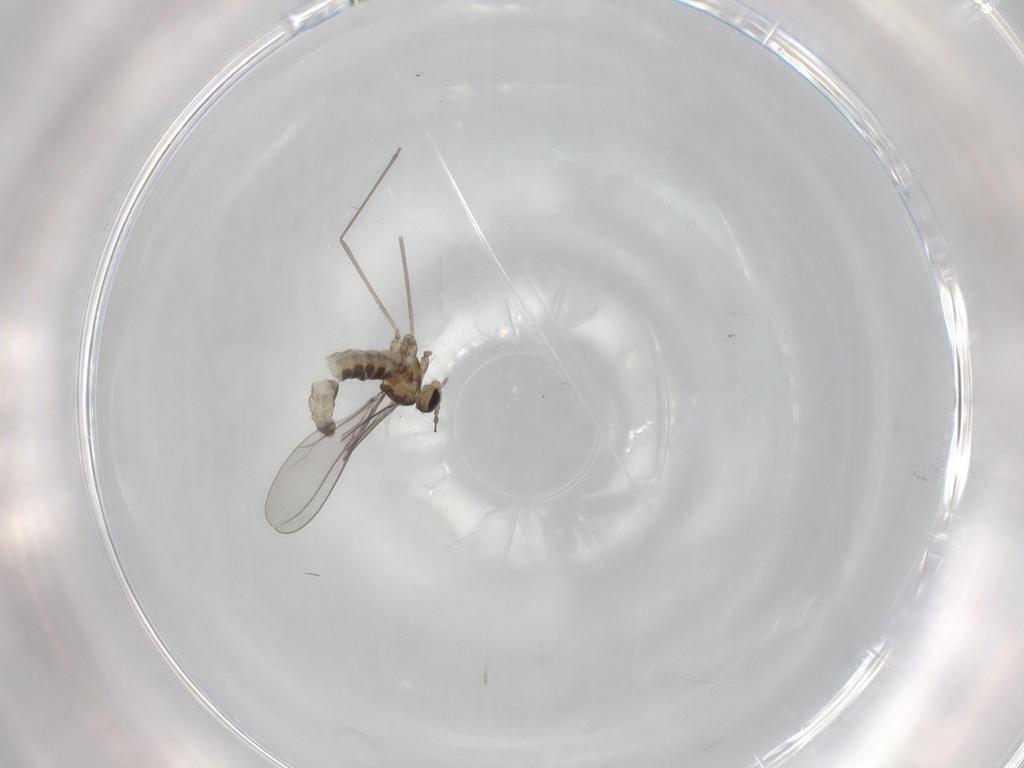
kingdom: Animalia
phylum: Arthropoda
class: Insecta
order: Diptera
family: Cecidomyiidae
